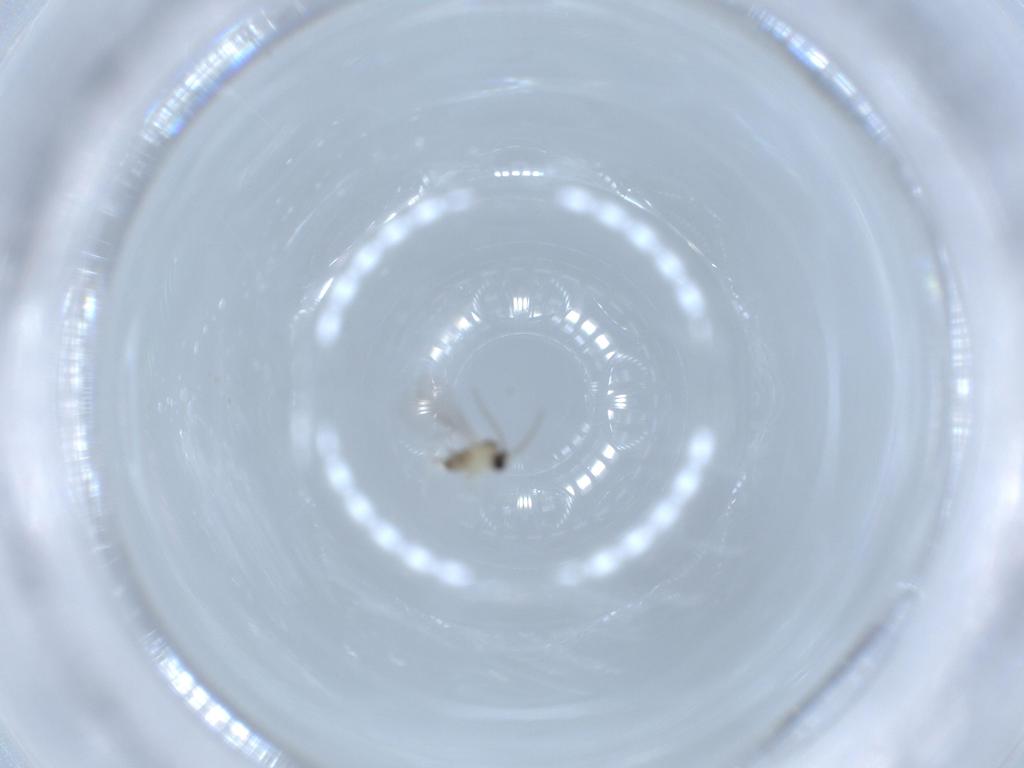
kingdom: Animalia
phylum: Arthropoda
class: Insecta
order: Diptera
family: Cecidomyiidae
